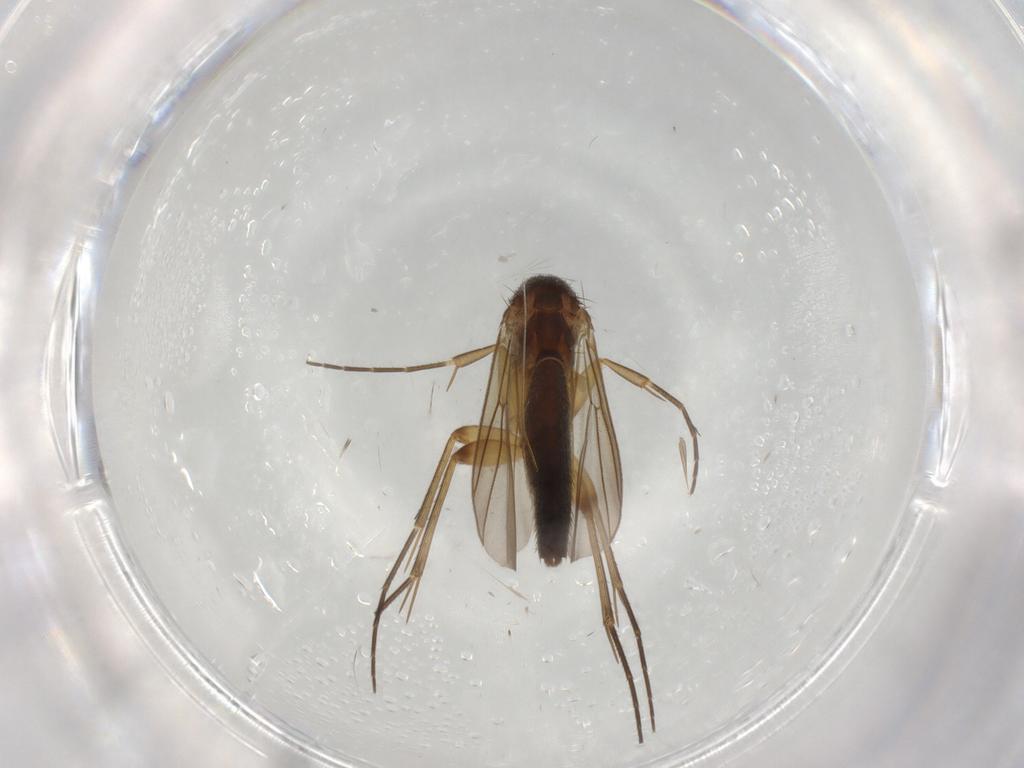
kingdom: Animalia
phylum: Arthropoda
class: Insecta
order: Diptera
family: Mycetophilidae
